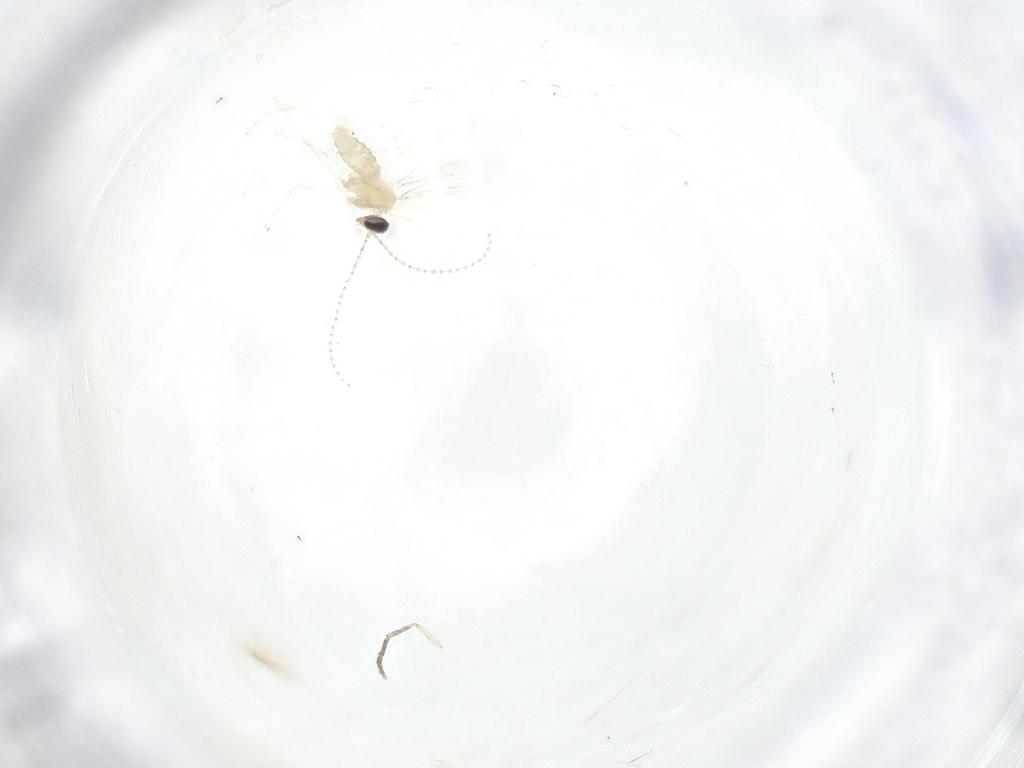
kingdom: Animalia
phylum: Arthropoda
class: Insecta
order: Diptera
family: Cecidomyiidae
